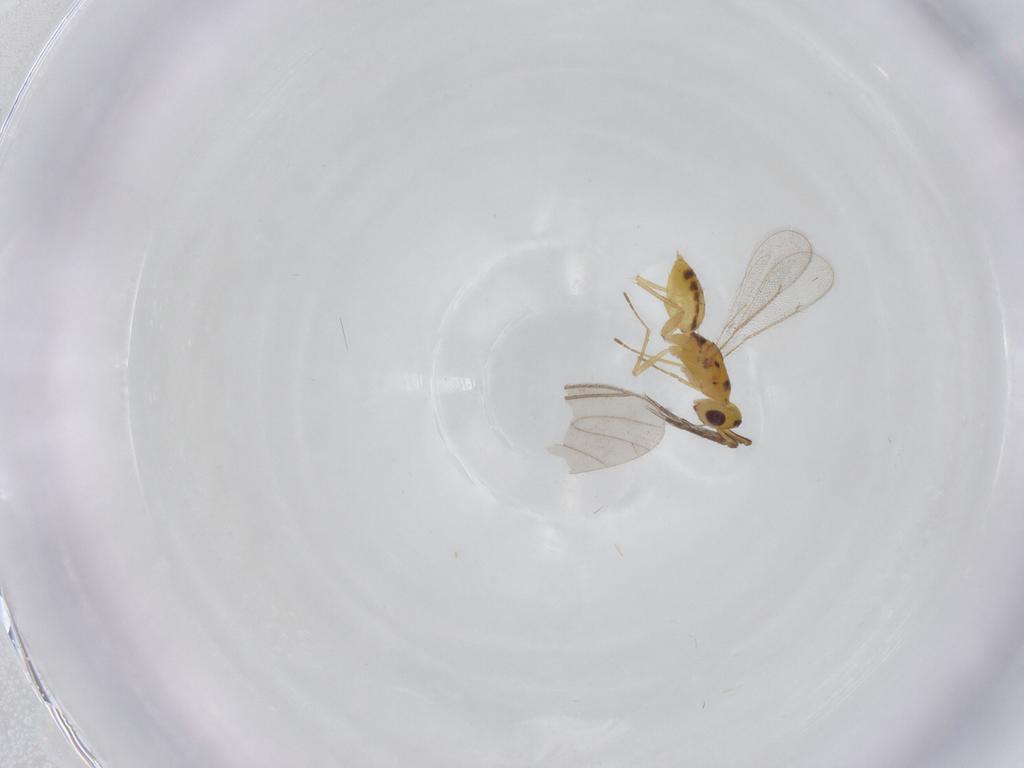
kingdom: Animalia
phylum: Arthropoda
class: Insecta
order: Hymenoptera
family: Eulophidae
